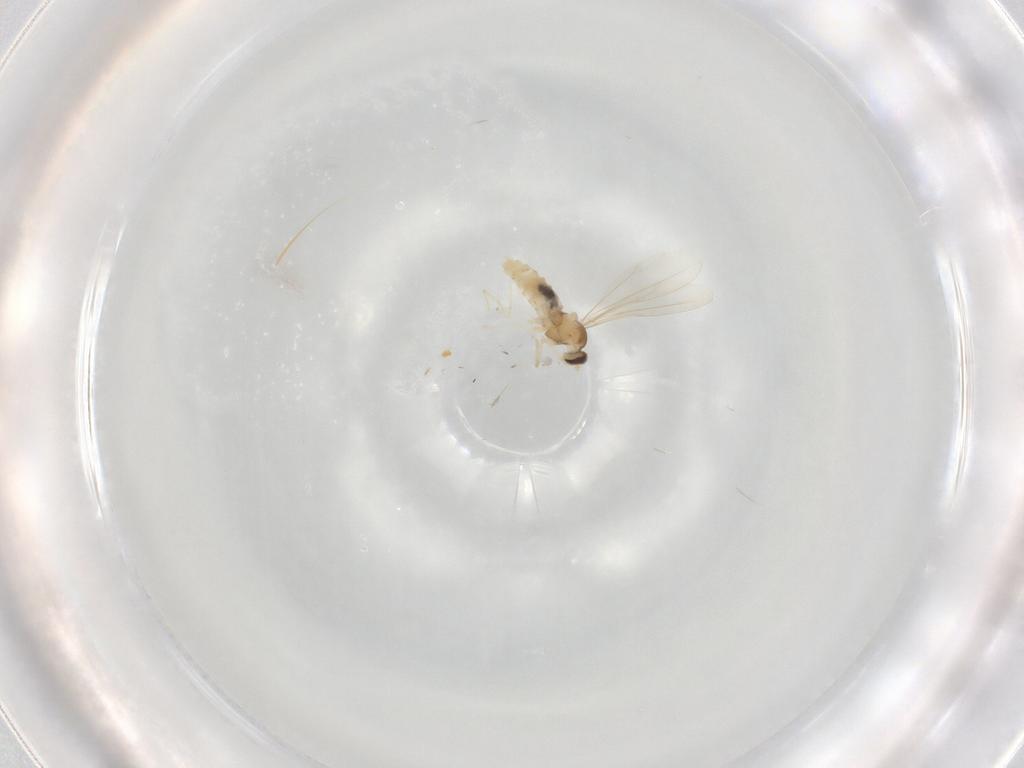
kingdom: Animalia
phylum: Arthropoda
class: Insecta
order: Diptera
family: Cecidomyiidae
